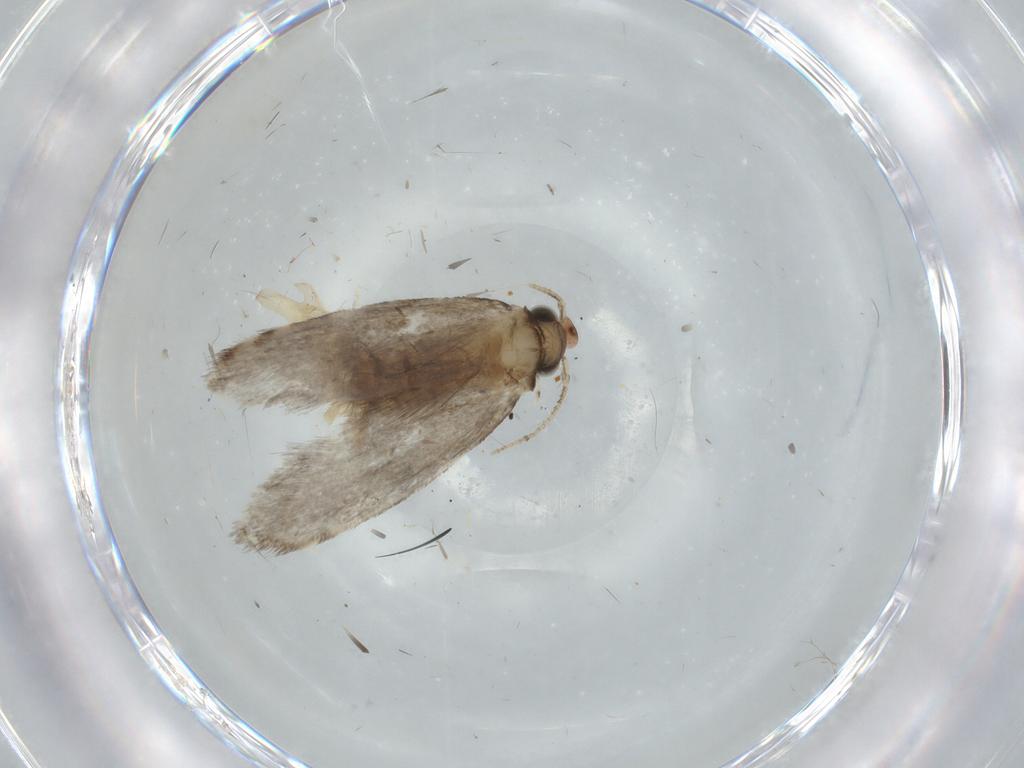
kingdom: Animalia
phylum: Arthropoda
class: Insecta
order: Lepidoptera
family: Tineidae
